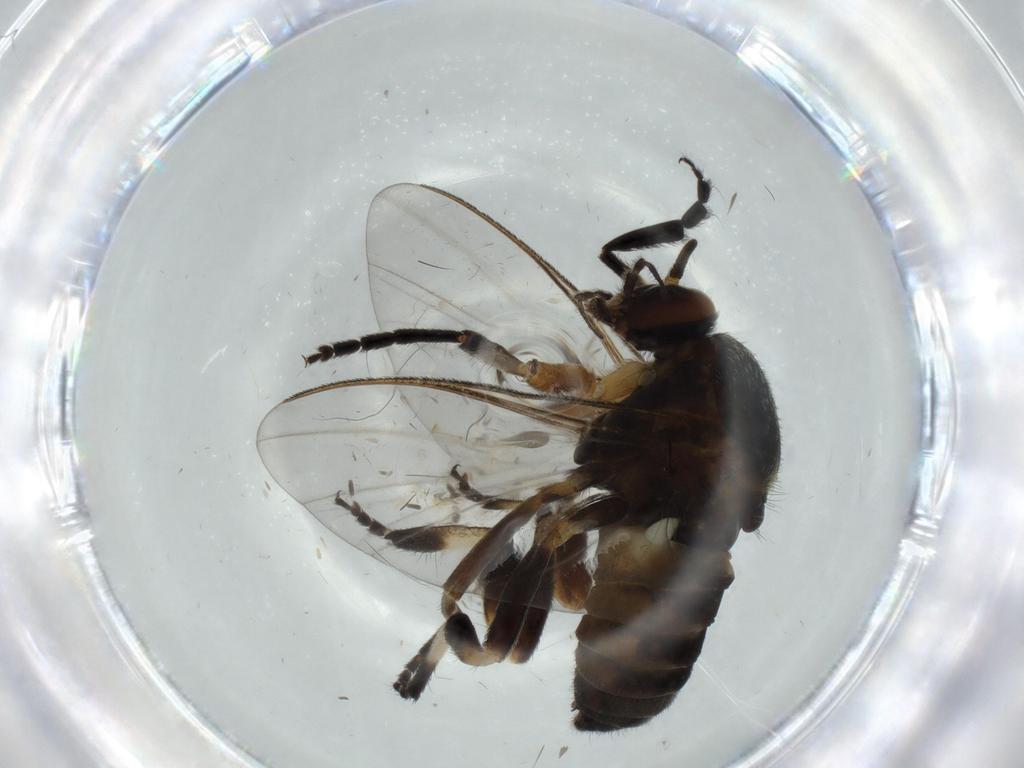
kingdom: Animalia
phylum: Arthropoda
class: Insecta
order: Diptera
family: Sciaridae
